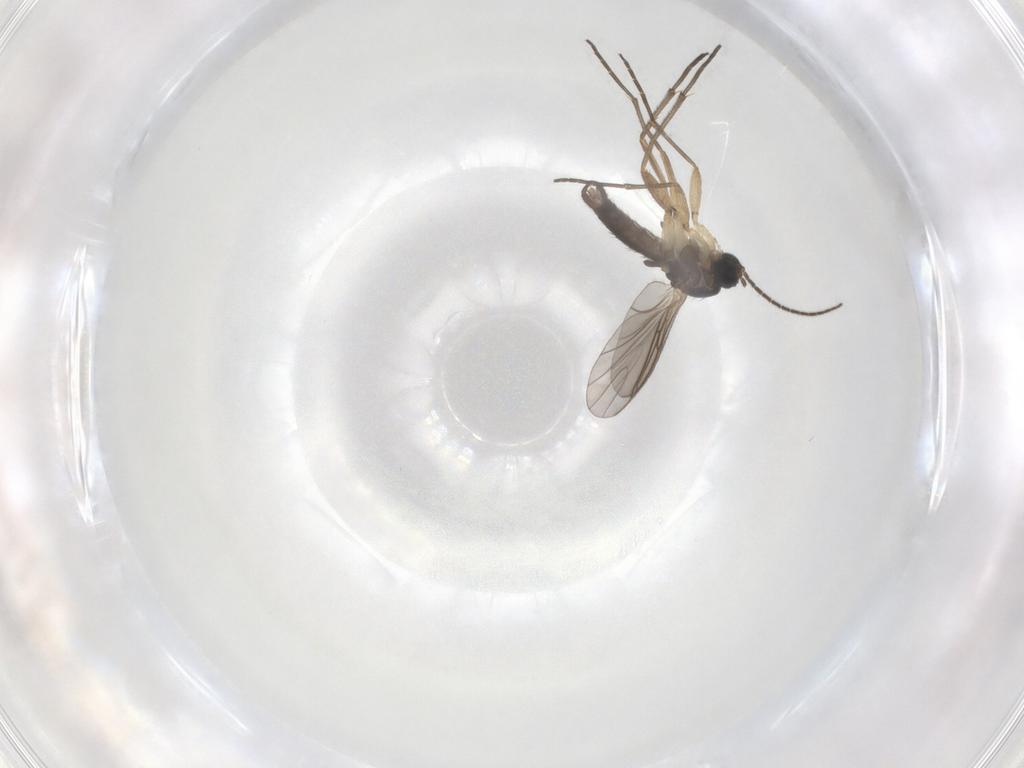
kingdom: Animalia
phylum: Arthropoda
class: Insecta
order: Diptera
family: Sciaridae
